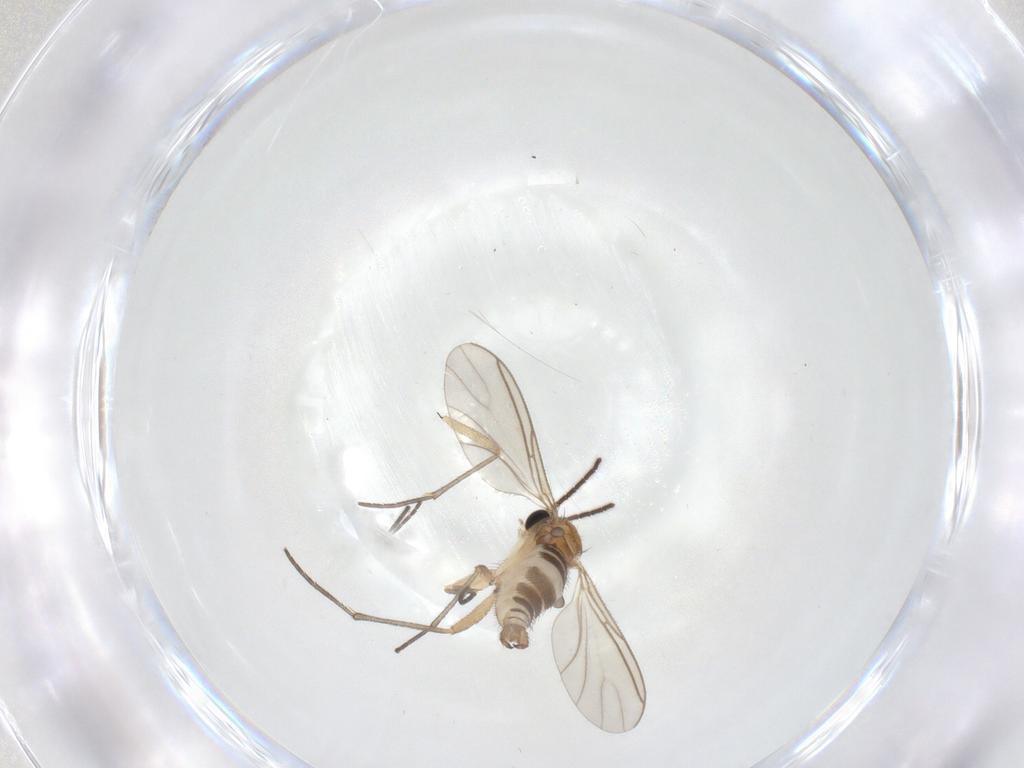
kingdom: Animalia
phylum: Arthropoda
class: Insecta
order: Diptera
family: Sciaridae
